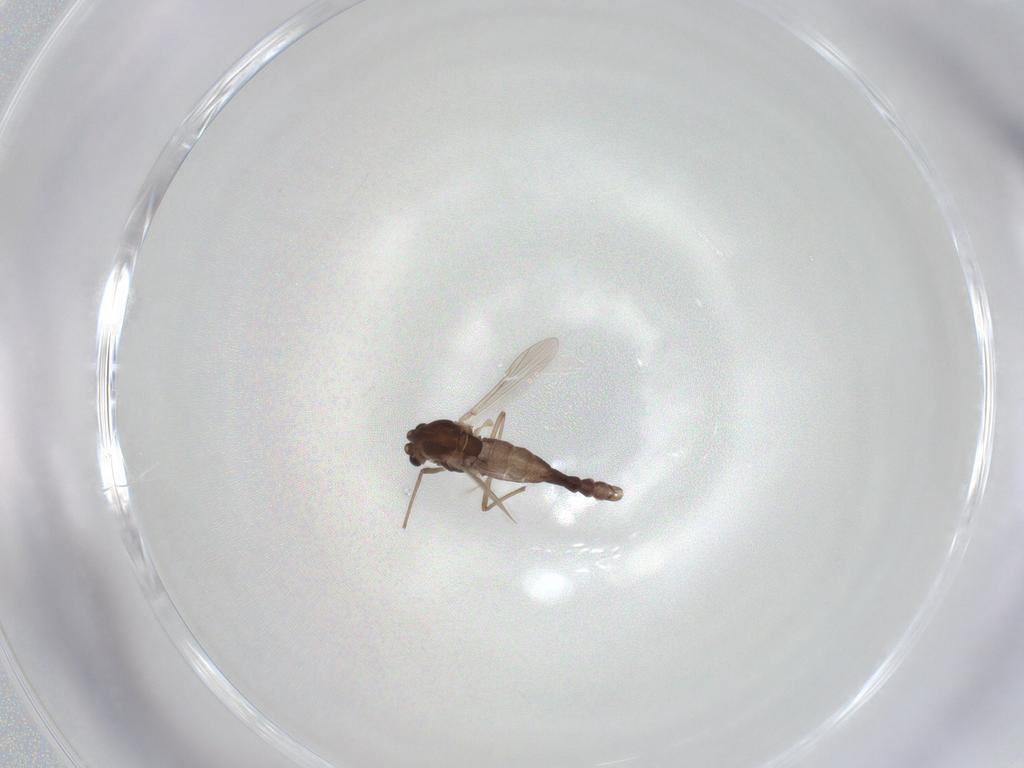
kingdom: Animalia
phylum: Arthropoda
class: Insecta
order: Diptera
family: Chironomidae
